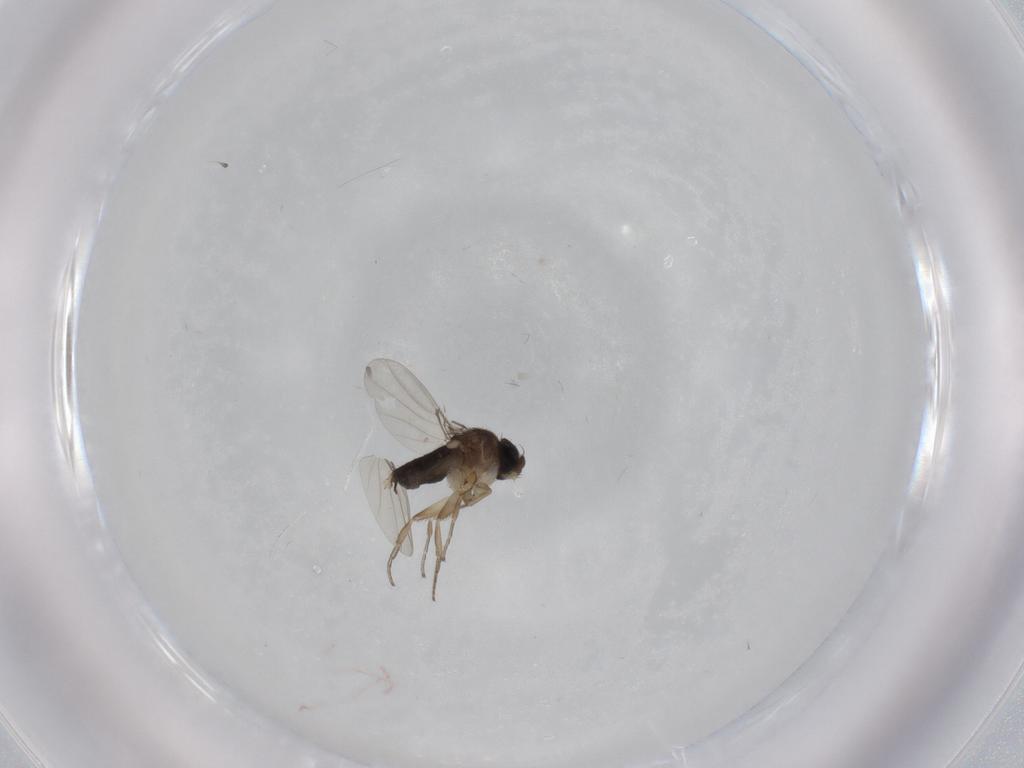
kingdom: Animalia
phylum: Arthropoda
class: Insecta
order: Diptera
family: Phoridae
